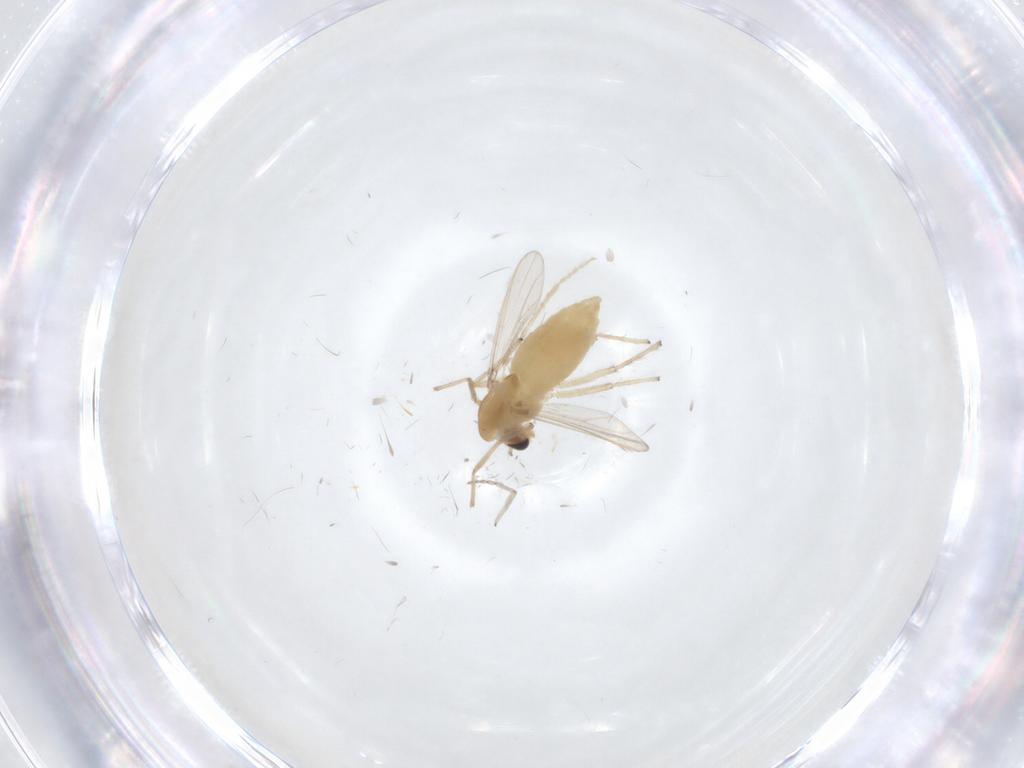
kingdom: Animalia
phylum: Arthropoda
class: Insecta
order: Diptera
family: Chironomidae
